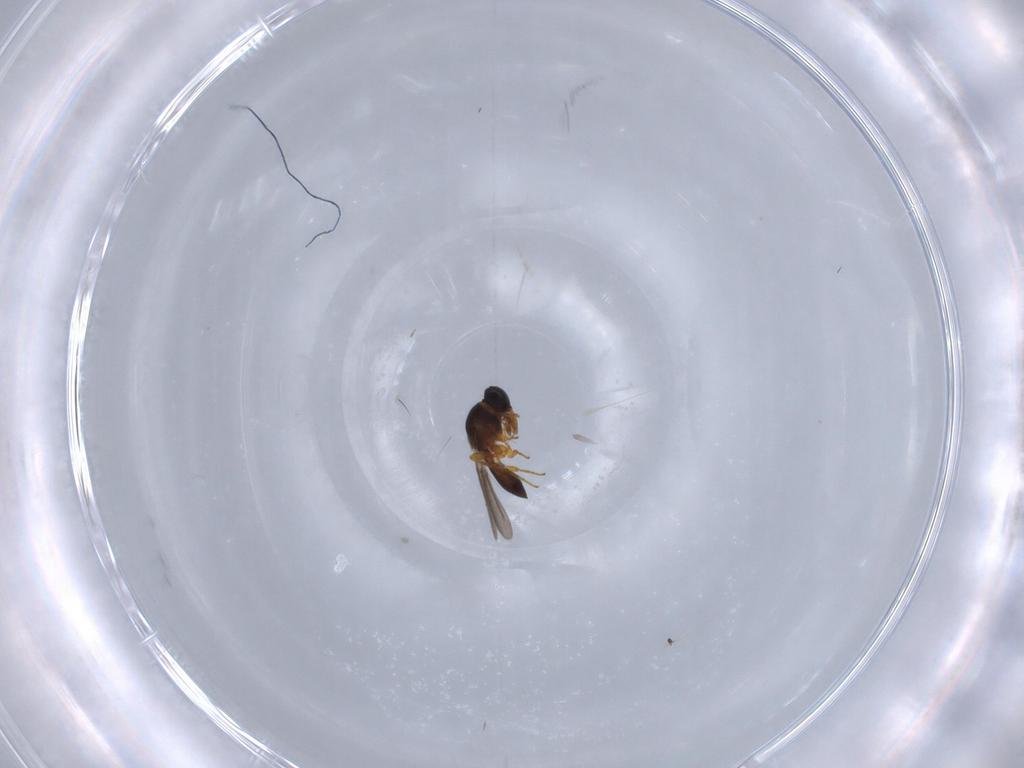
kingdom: Animalia
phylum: Arthropoda
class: Insecta
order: Hymenoptera
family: Platygastridae
